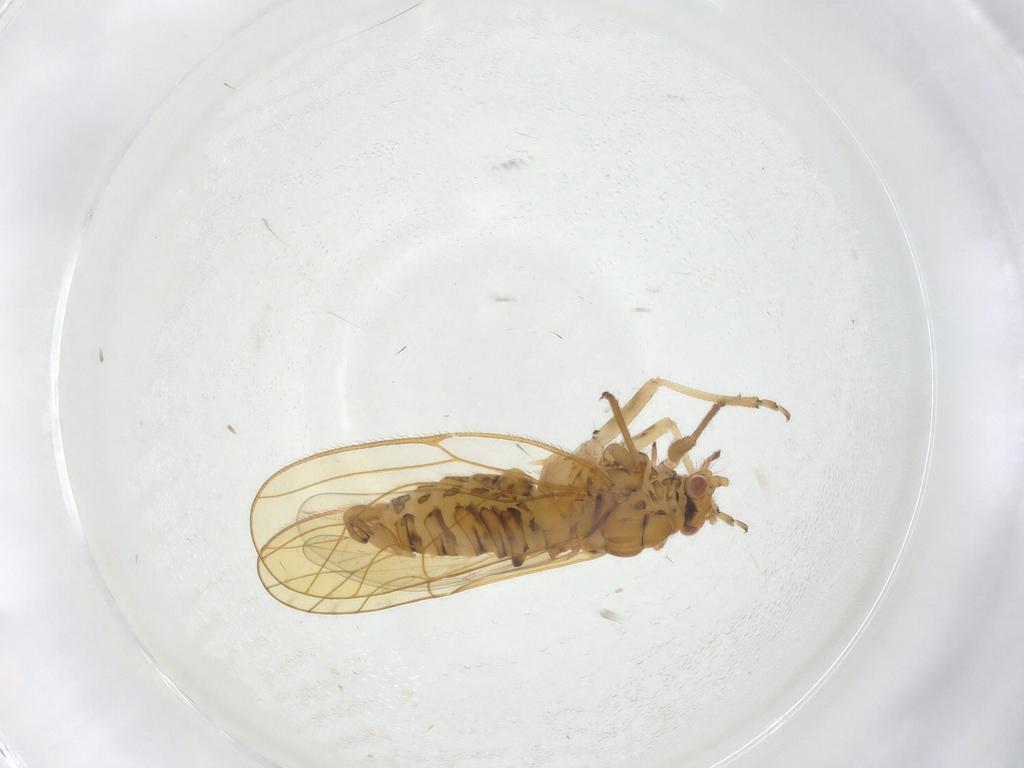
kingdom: Animalia
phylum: Arthropoda
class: Insecta
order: Hemiptera
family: Psyllidae
